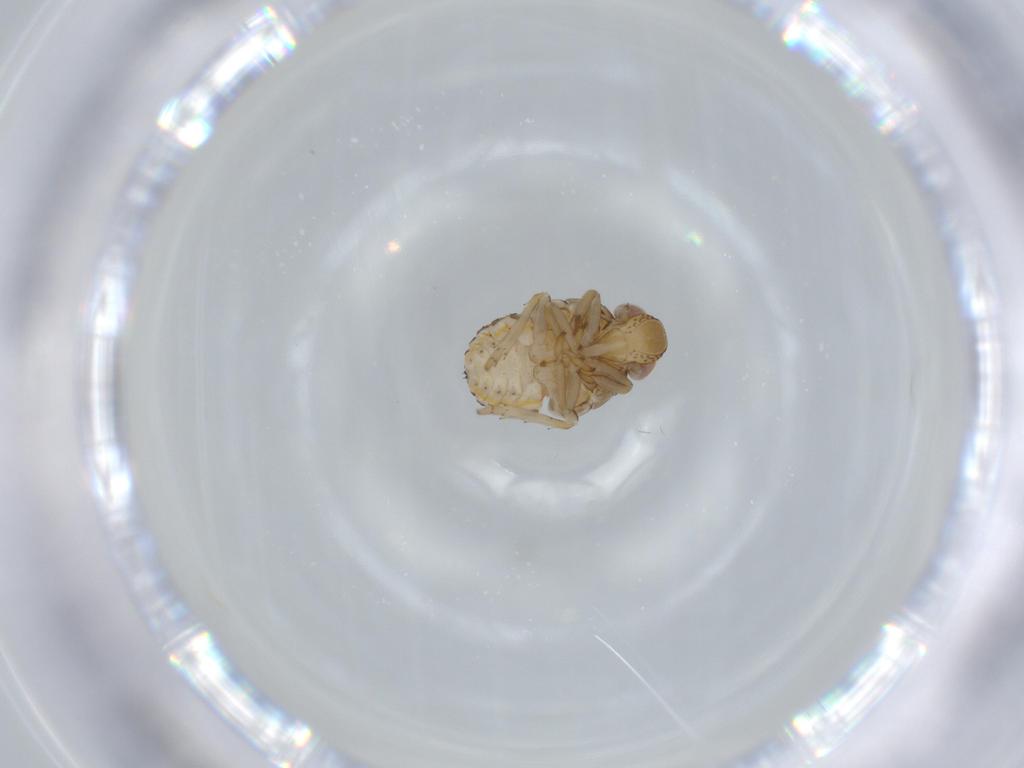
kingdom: Animalia
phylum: Arthropoda
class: Insecta
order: Hemiptera
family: Issidae
